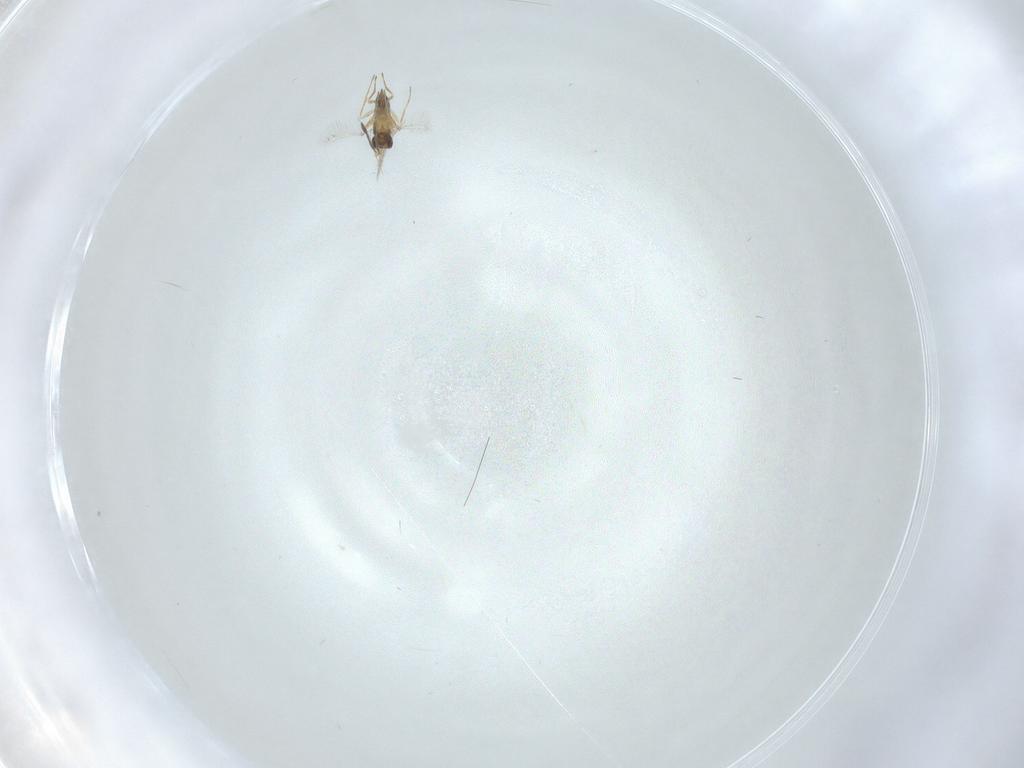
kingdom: Animalia
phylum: Arthropoda
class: Insecta
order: Hymenoptera
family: Mymaridae
